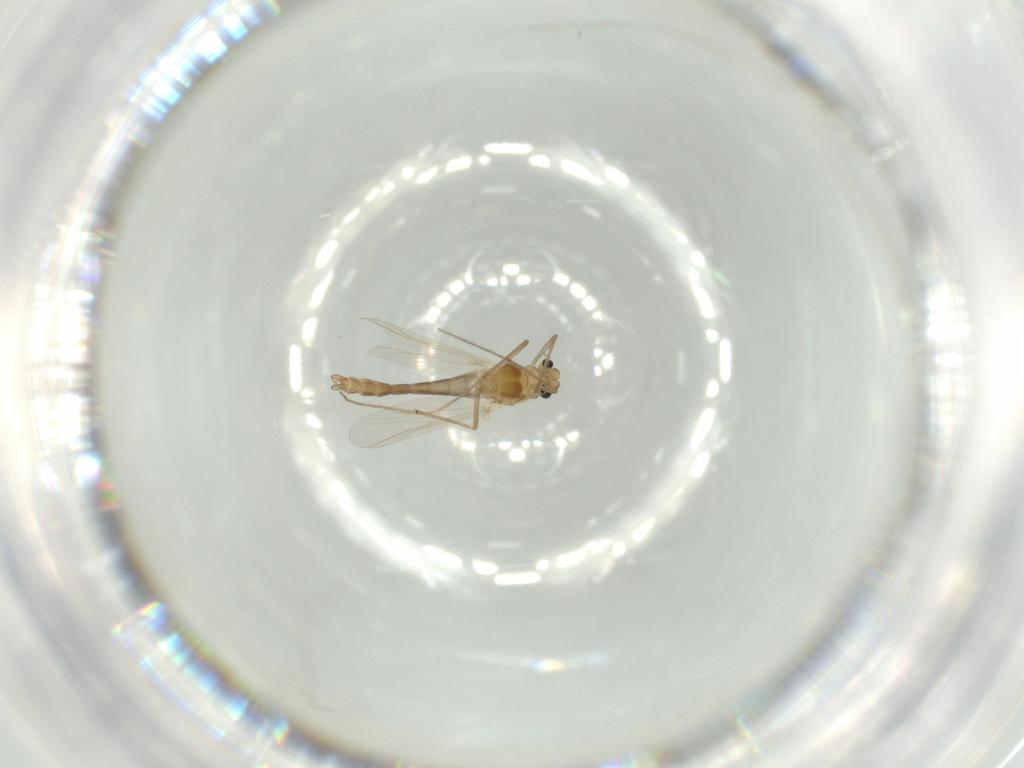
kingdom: Animalia
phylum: Arthropoda
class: Insecta
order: Diptera
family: Chironomidae
